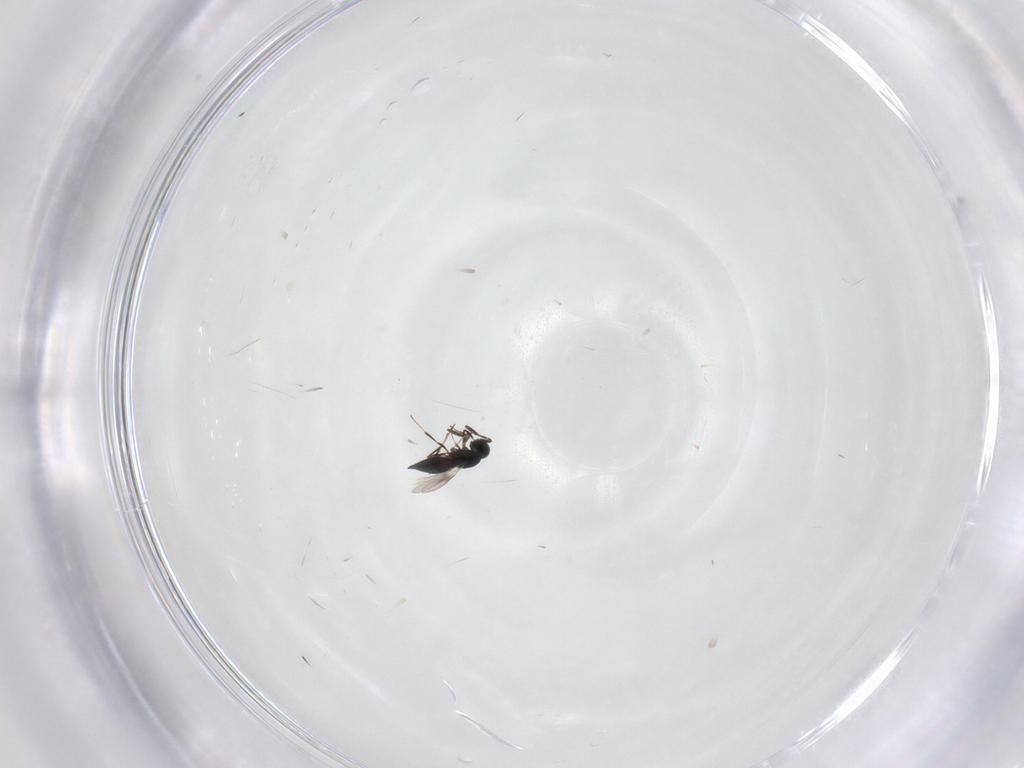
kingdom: Animalia
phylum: Arthropoda
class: Insecta
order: Hymenoptera
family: Scelionidae
